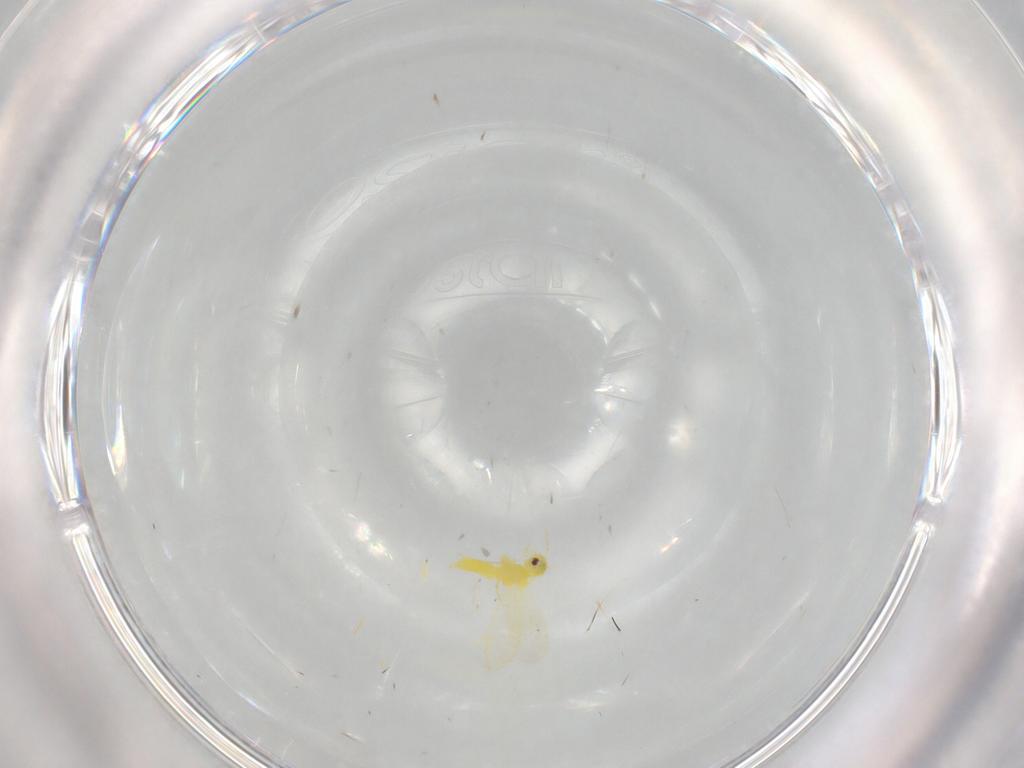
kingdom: Animalia
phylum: Arthropoda
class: Insecta
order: Hemiptera
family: Aleyrodidae
